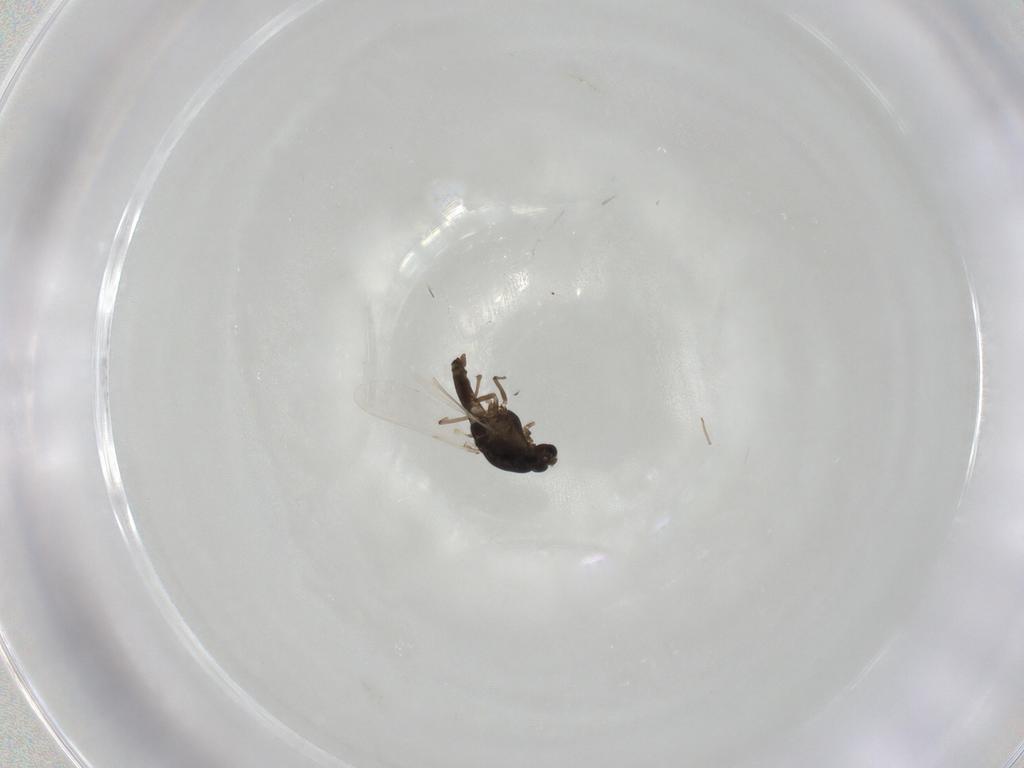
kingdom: Animalia
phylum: Arthropoda
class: Insecta
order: Diptera
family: Chironomidae
